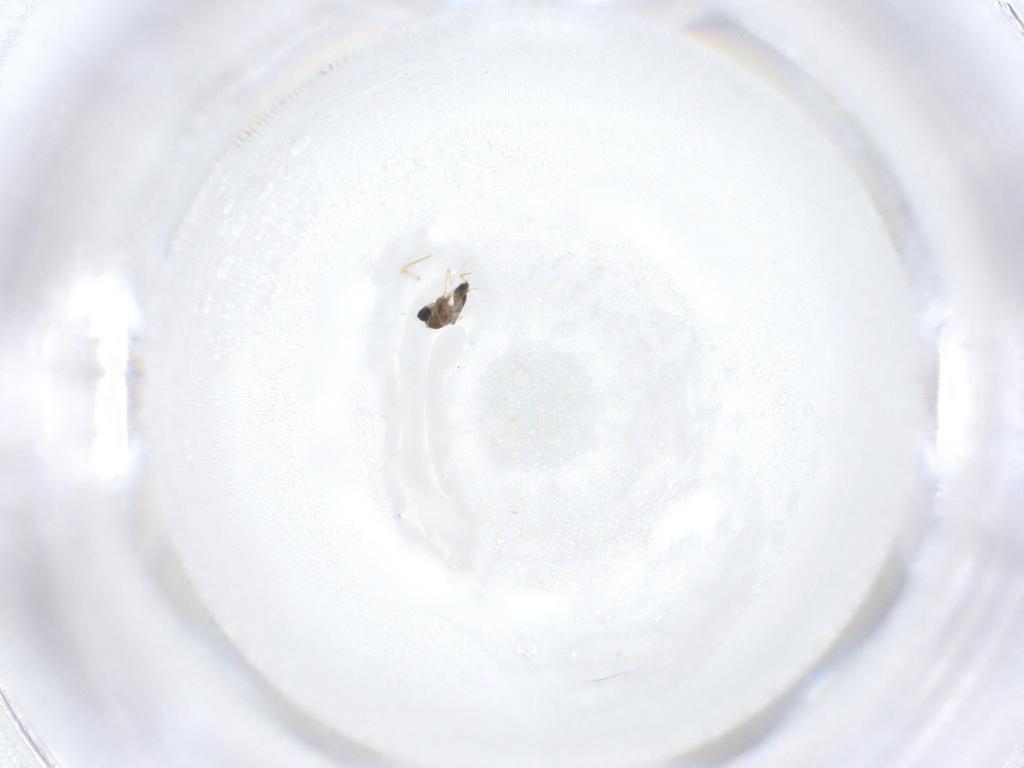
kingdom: Animalia
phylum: Arthropoda
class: Insecta
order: Diptera
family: Ceratopogonidae
